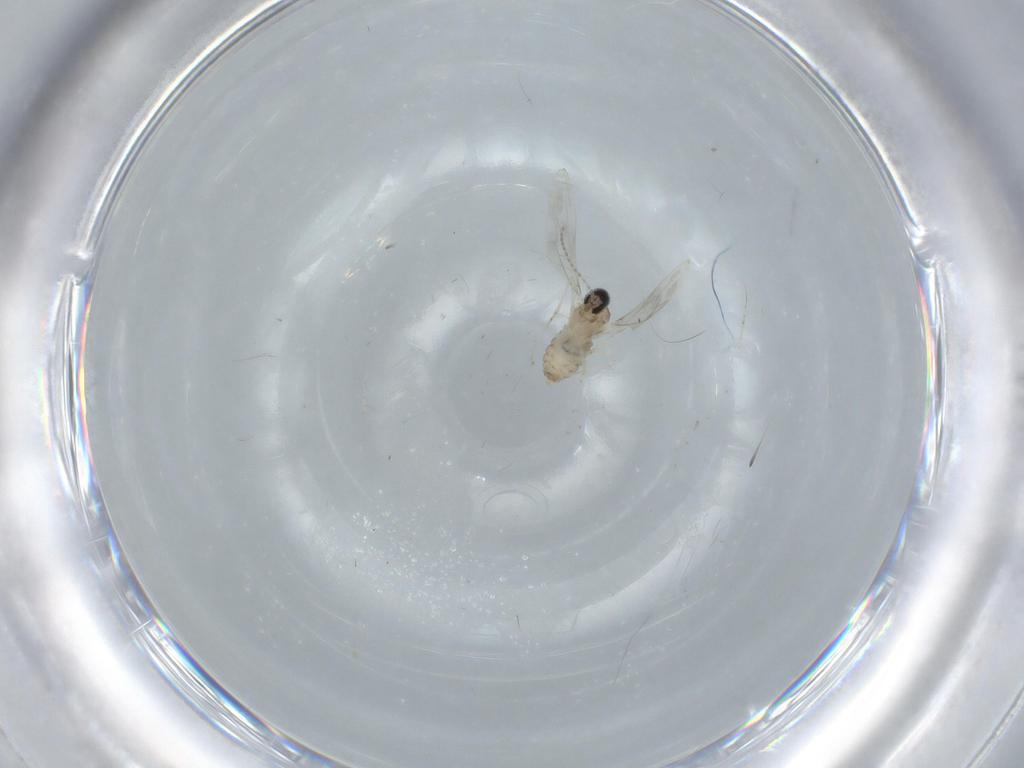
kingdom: Animalia
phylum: Arthropoda
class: Insecta
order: Diptera
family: Cecidomyiidae
